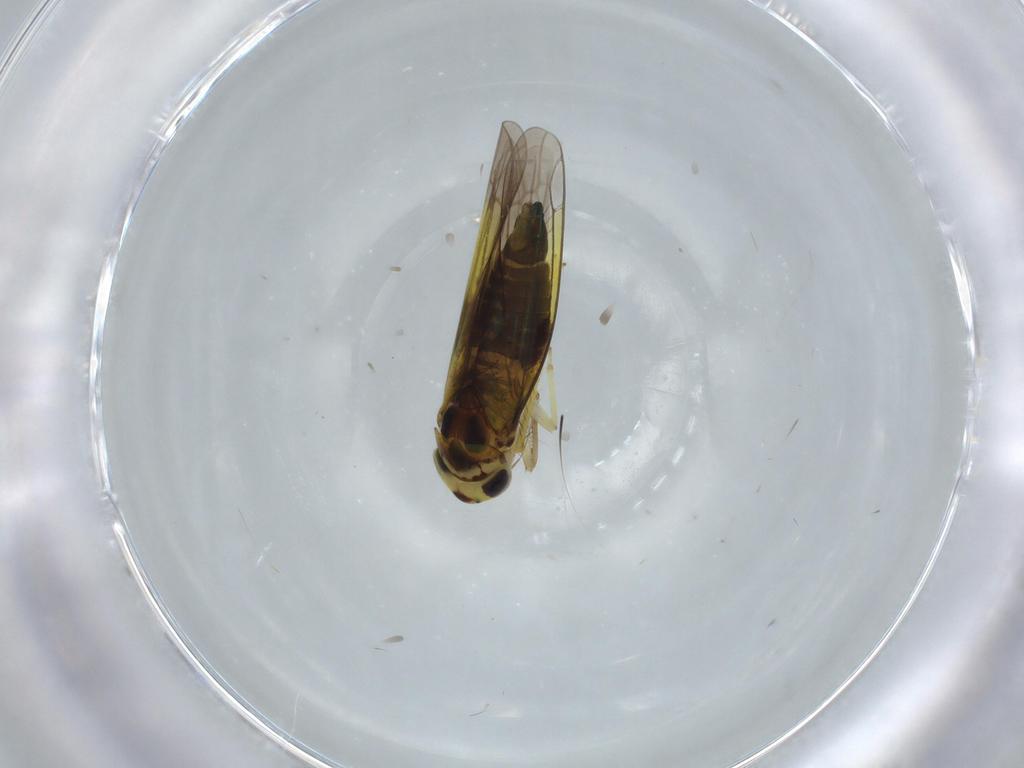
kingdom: Animalia
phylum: Arthropoda
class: Insecta
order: Hemiptera
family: Cicadellidae
